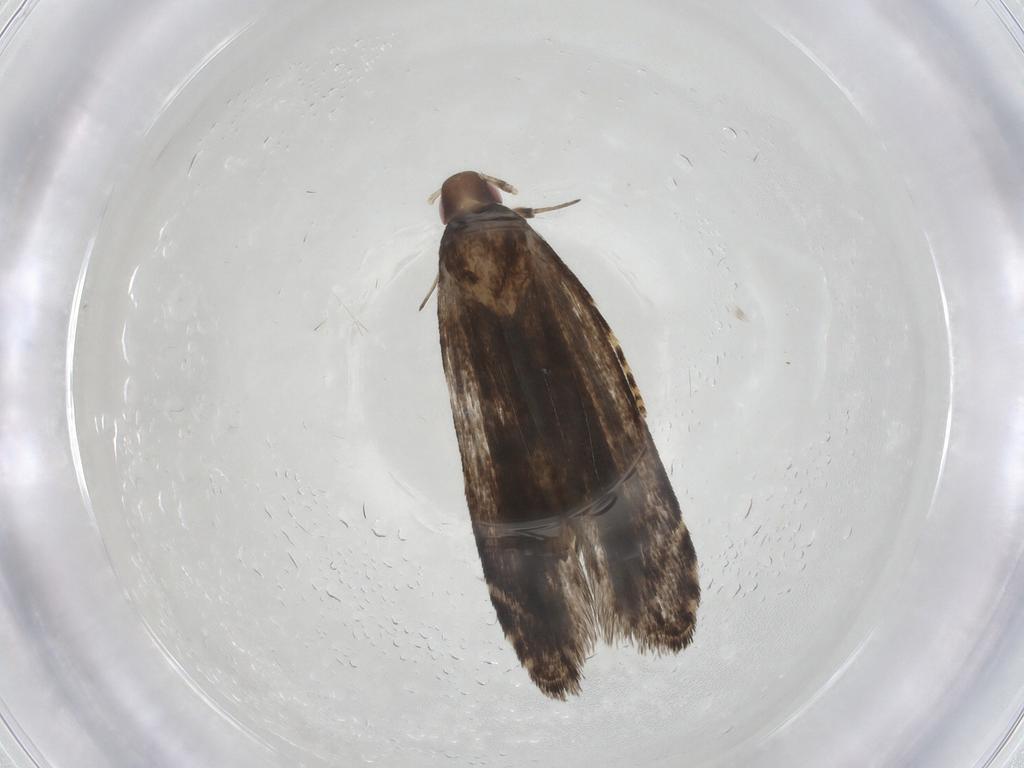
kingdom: Animalia
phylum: Arthropoda
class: Insecta
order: Lepidoptera
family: Gelechiidae
